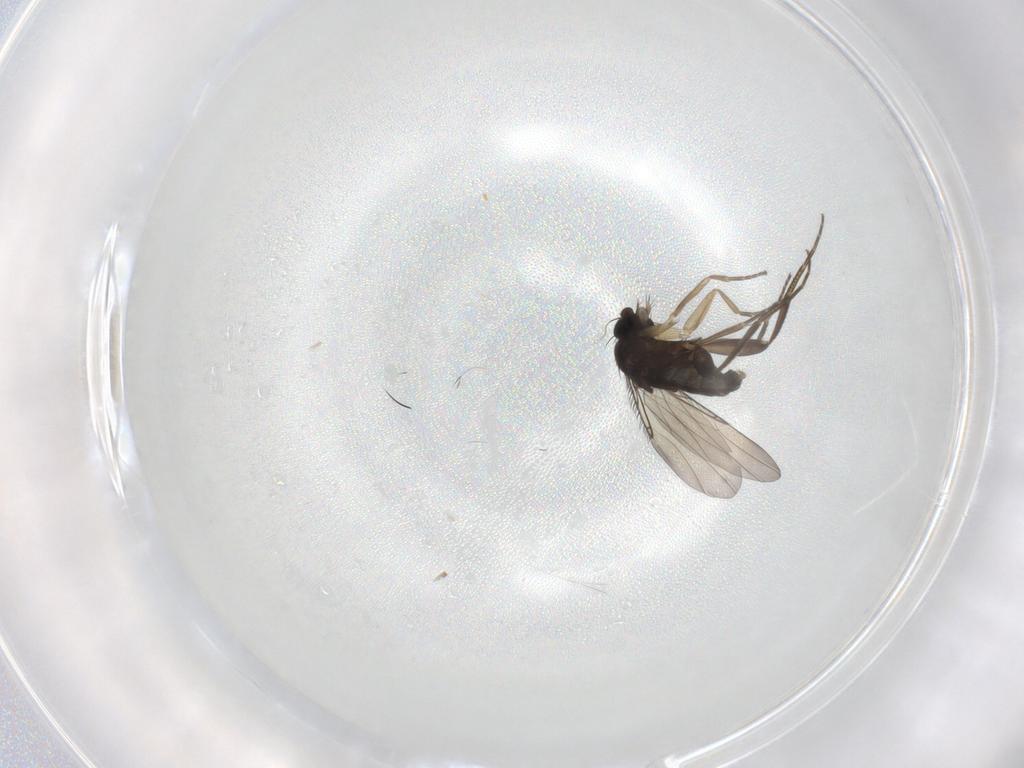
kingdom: Animalia
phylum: Arthropoda
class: Insecta
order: Diptera
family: Phoridae
